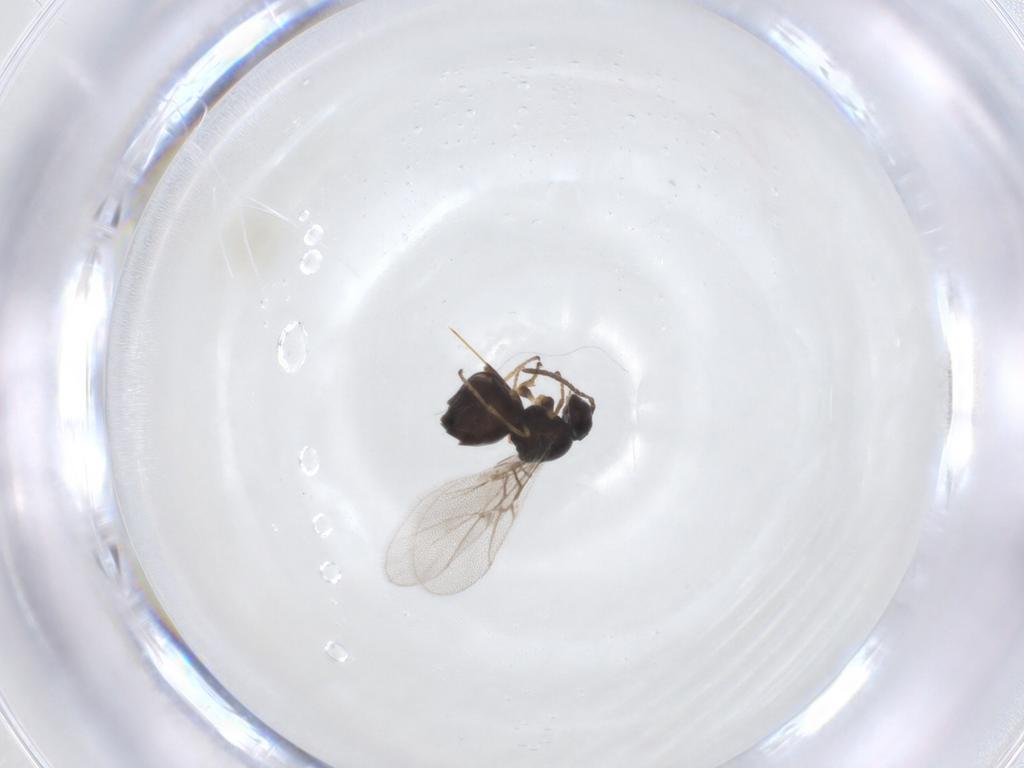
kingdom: Animalia
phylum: Arthropoda
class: Insecta
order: Hymenoptera
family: Cynipidae
